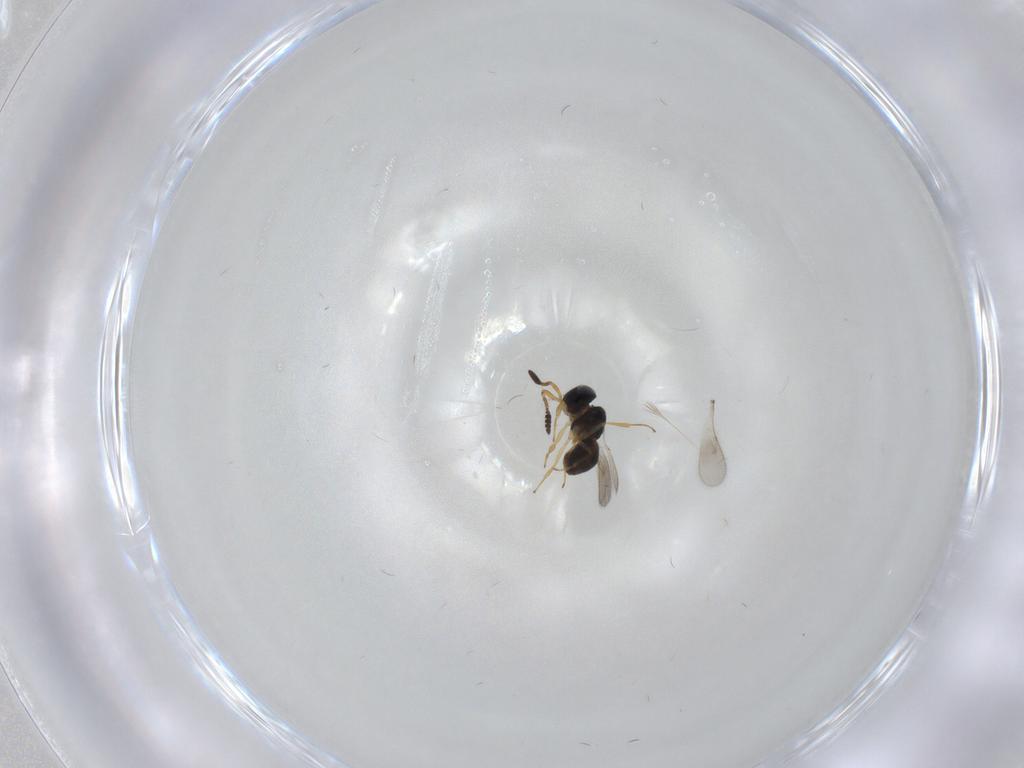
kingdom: Animalia
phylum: Arthropoda
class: Insecta
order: Hymenoptera
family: Scelionidae
